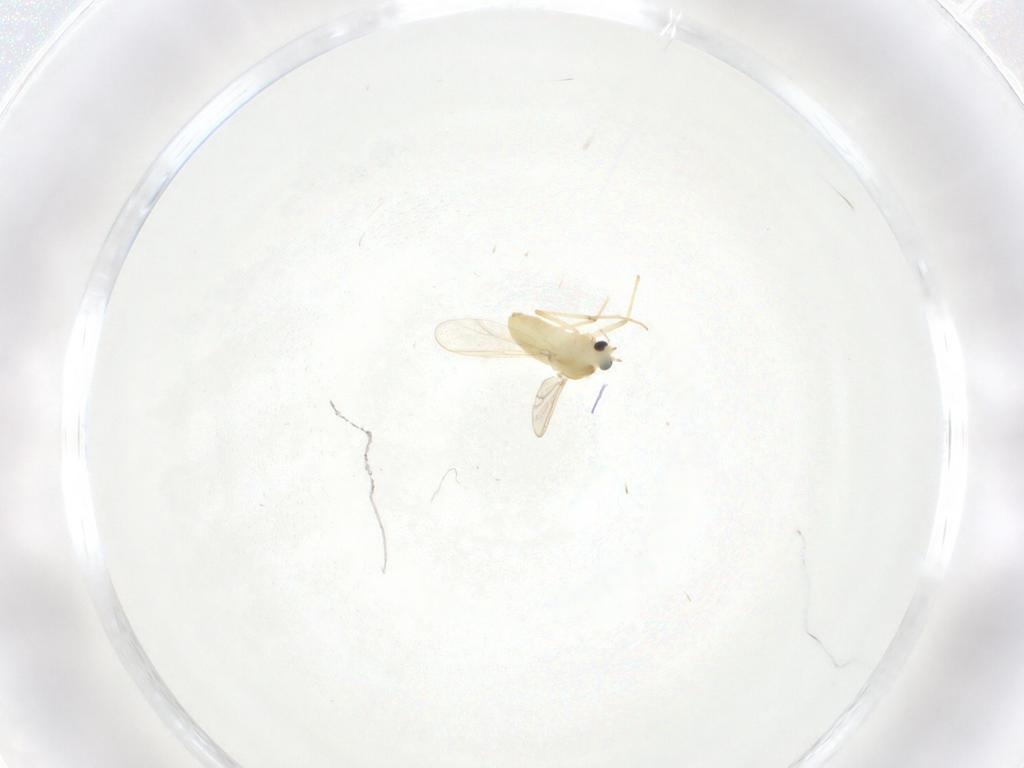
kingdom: Animalia
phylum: Arthropoda
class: Insecta
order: Diptera
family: Chironomidae
